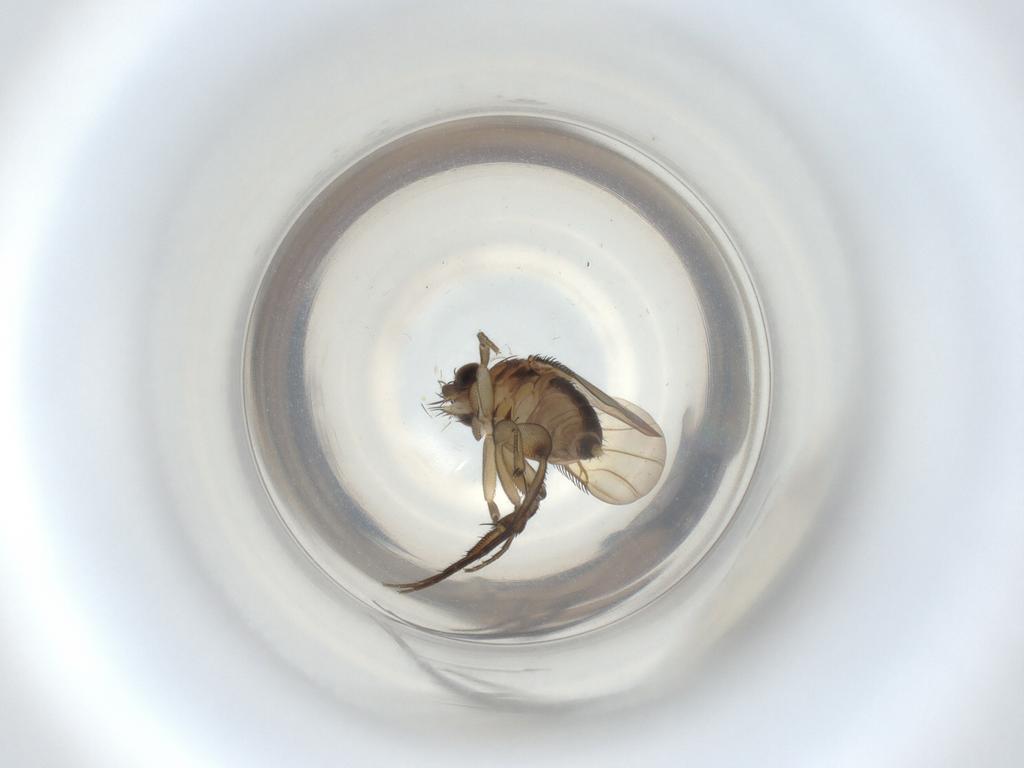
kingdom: Animalia
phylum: Arthropoda
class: Insecta
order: Diptera
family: Phoridae
